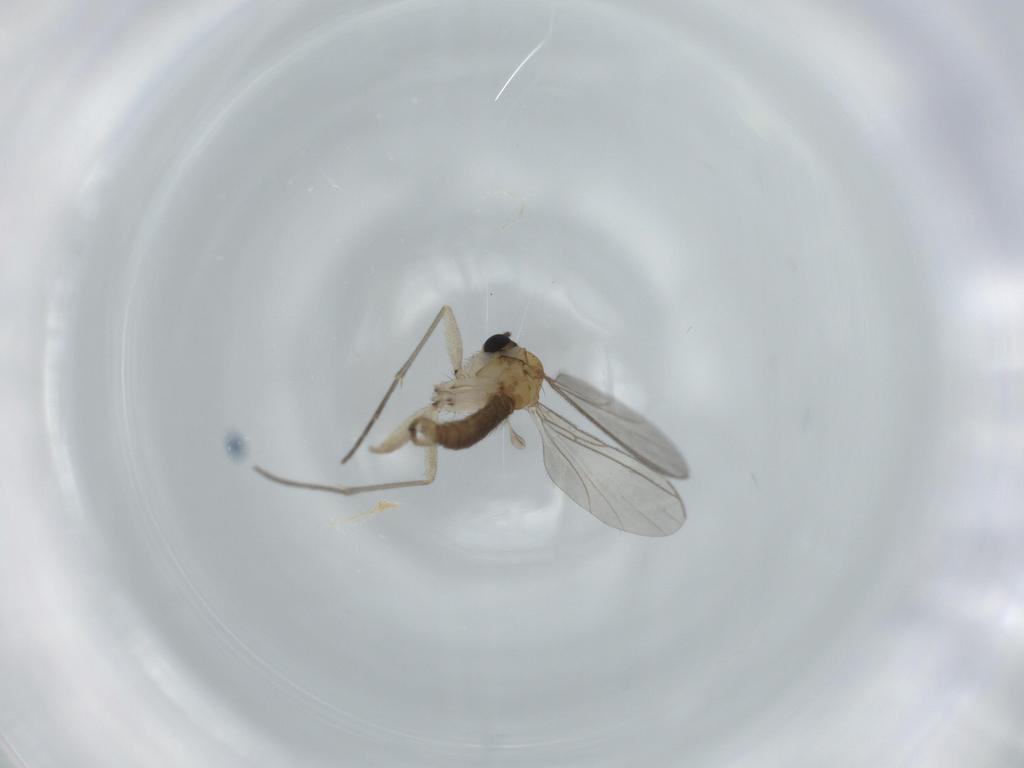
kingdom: Animalia
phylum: Arthropoda
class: Insecta
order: Diptera
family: Sciaridae
